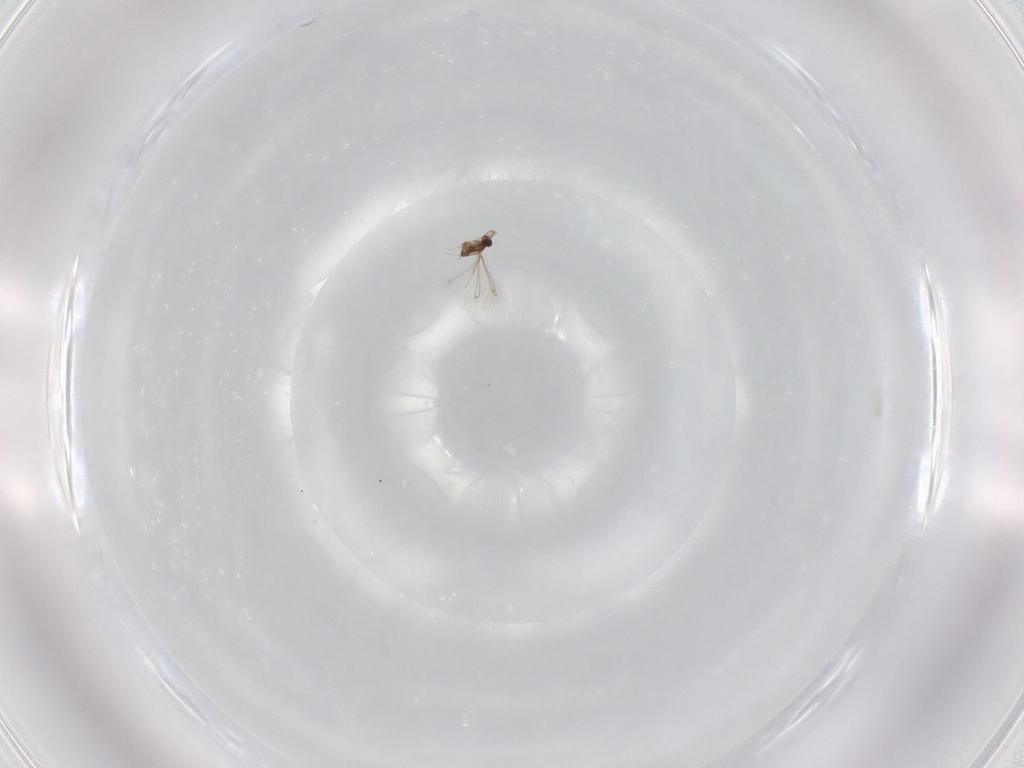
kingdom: Animalia
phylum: Arthropoda
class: Insecta
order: Hymenoptera
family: Mymaridae
